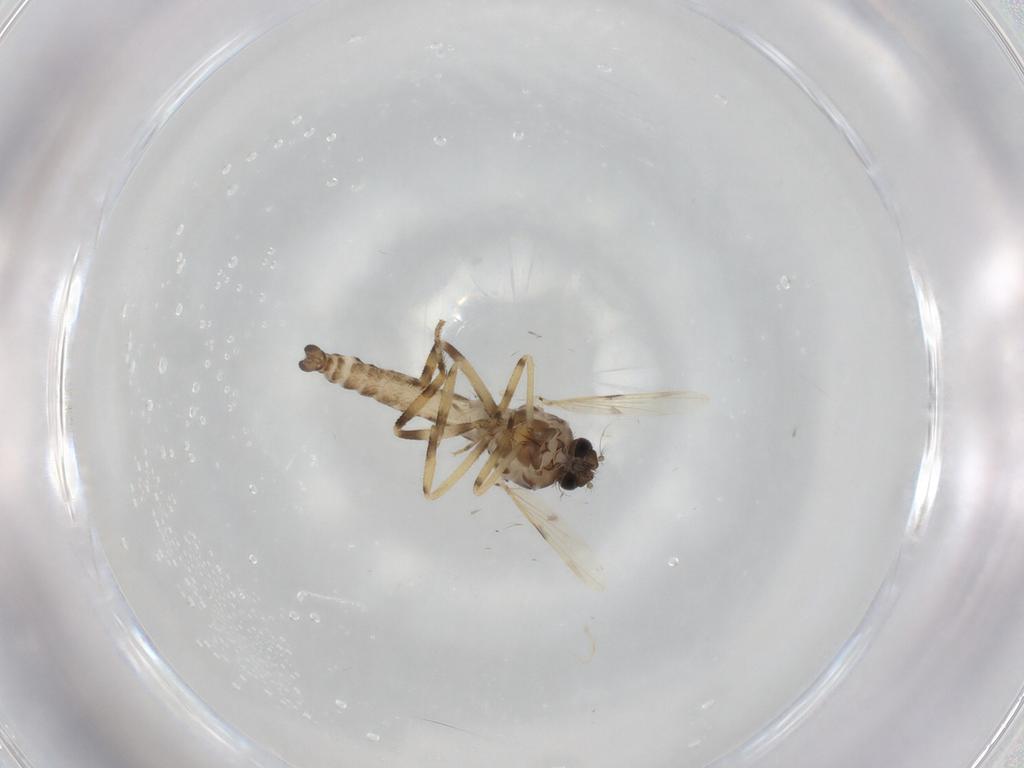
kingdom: Animalia
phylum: Arthropoda
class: Insecta
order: Diptera
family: Ceratopogonidae
